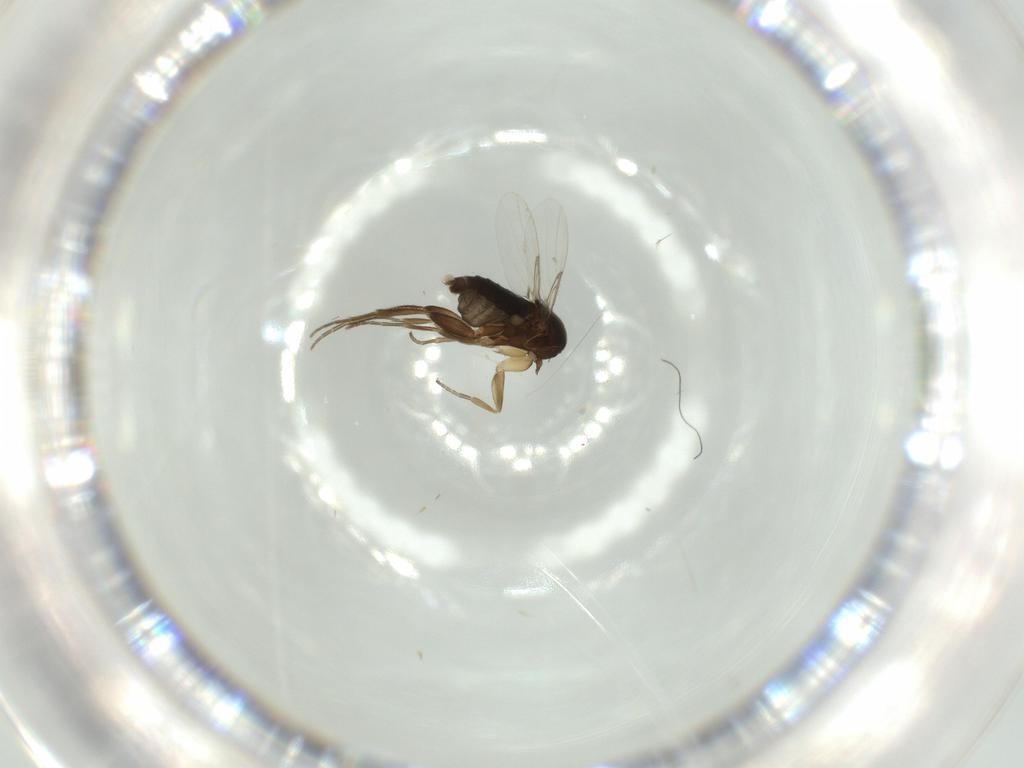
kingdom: Animalia
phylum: Arthropoda
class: Insecta
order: Diptera
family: Phoridae
